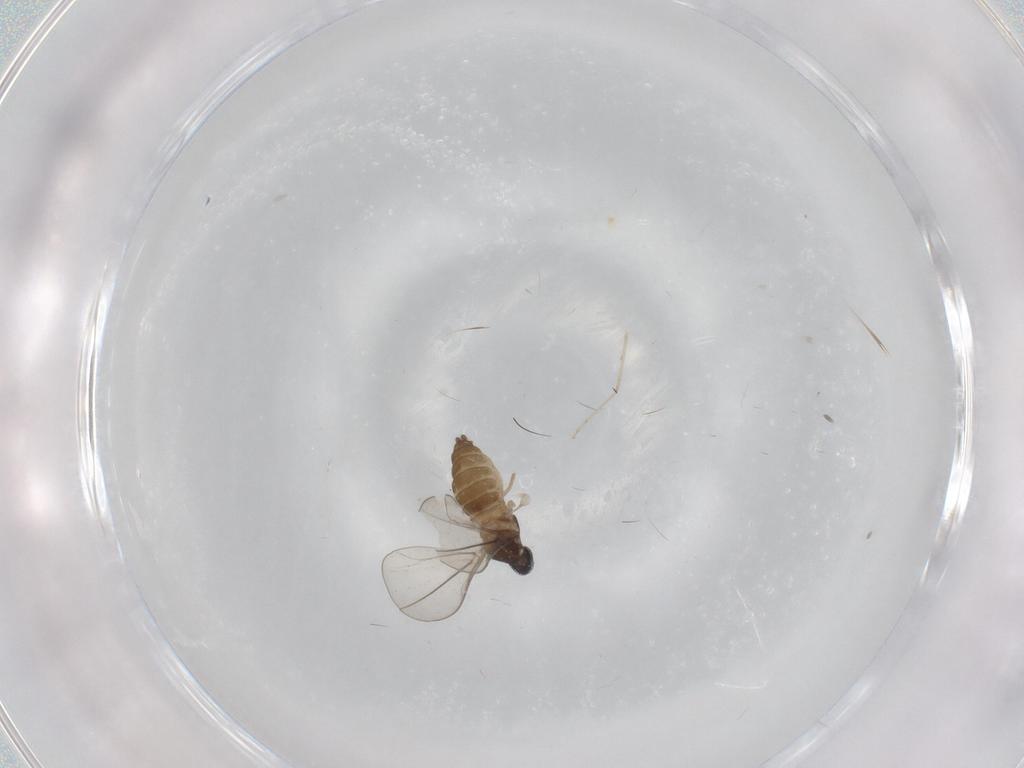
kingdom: Animalia
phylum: Arthropoda
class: Insecta
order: Diptera
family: Cecidomyiidae
